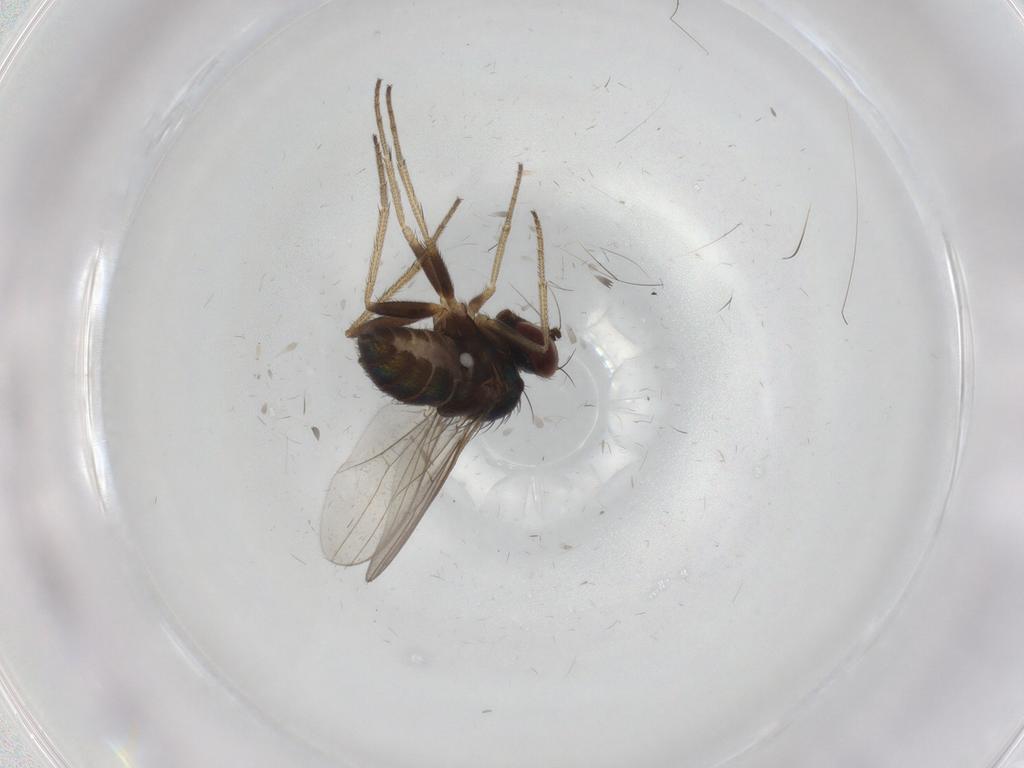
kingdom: Animalia
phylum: Arthropoda
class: Insecta
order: Diptera
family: Dolichopodidae
